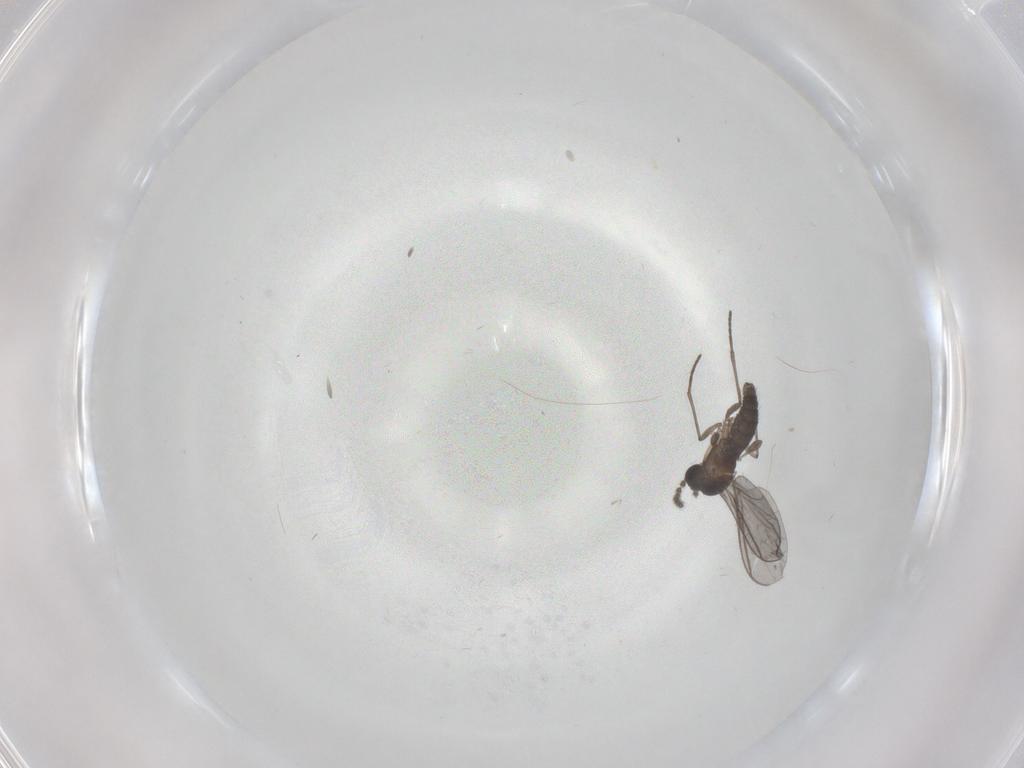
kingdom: Animalia
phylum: Arthropoda
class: Insecta
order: Diptera
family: Sciaridae
